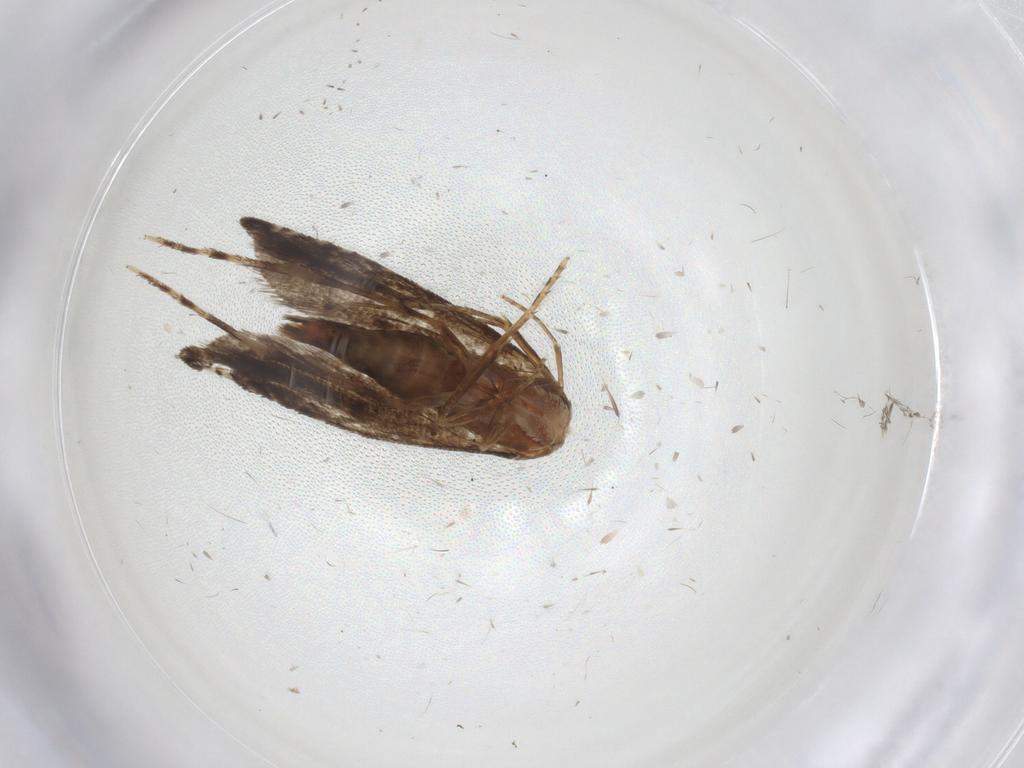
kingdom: Animalia
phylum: Arthropoda
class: Insecta
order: Lepidoptera
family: Glyphipterigidae
